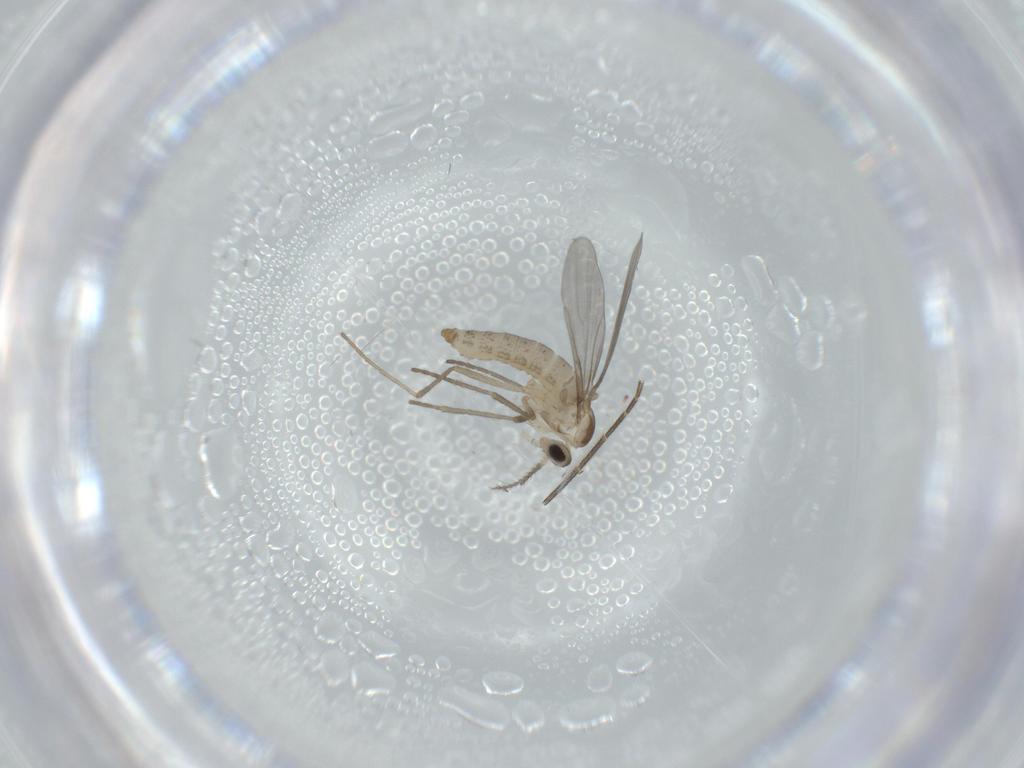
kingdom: Animalia
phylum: Arthropoda
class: Insecta
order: Diptera
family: Cecidomyiidae
